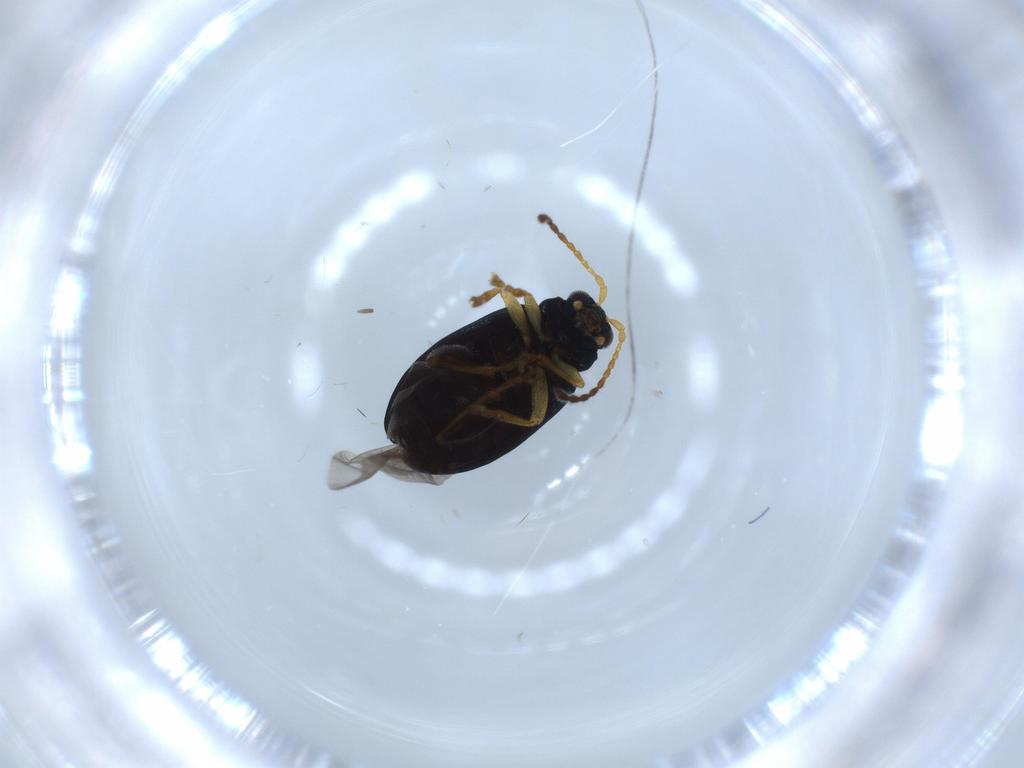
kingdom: Animalia
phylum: Arthropoda
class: Insecta
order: Coleoptera
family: Chrysomelidae
